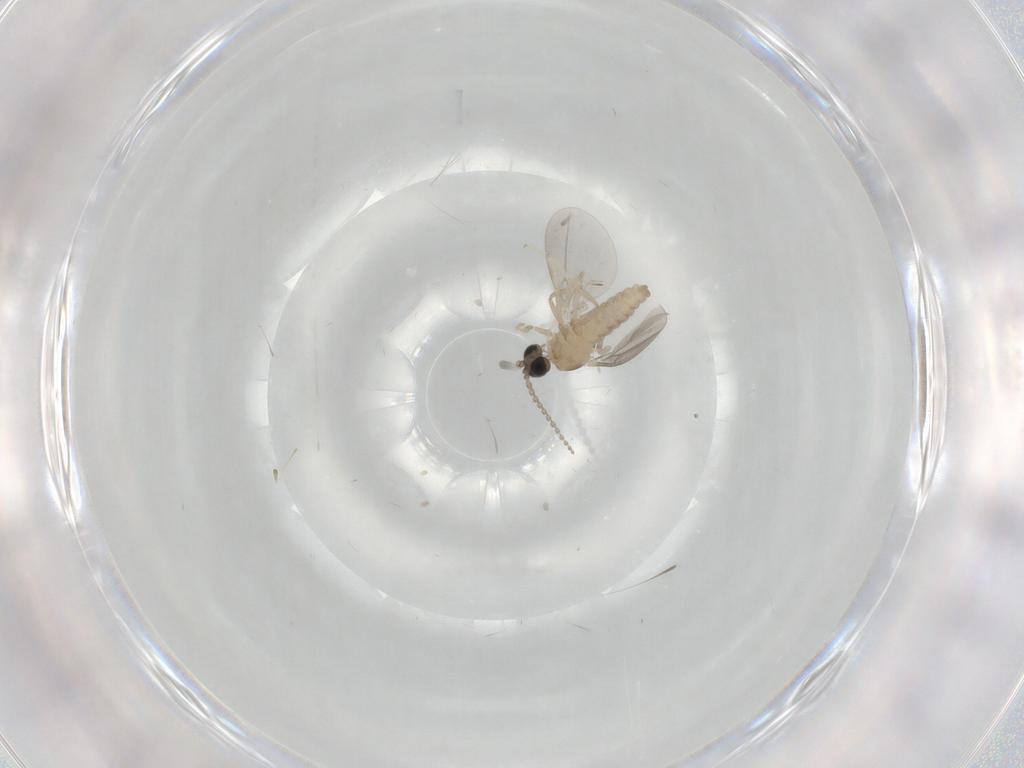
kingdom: Animalia
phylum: Arthropoda
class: Insecta
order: Diptera
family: Cecidomyiidae
